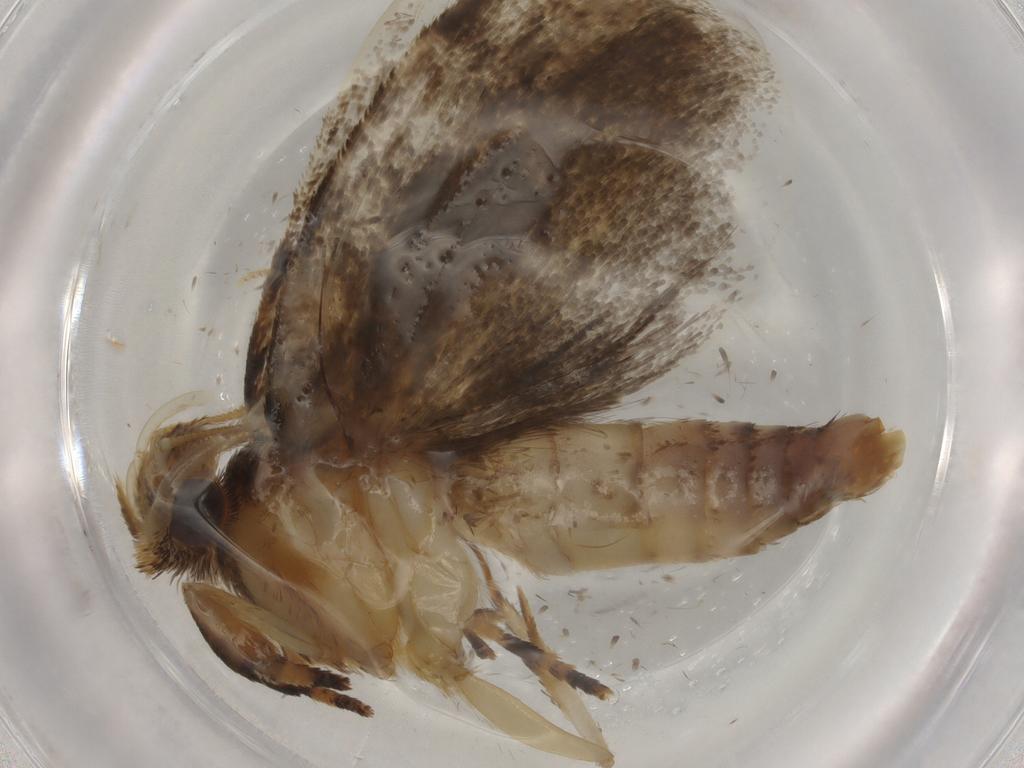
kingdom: Animalia
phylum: Arthropoda
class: Insecta
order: Lepidoptera
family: Tineidae
